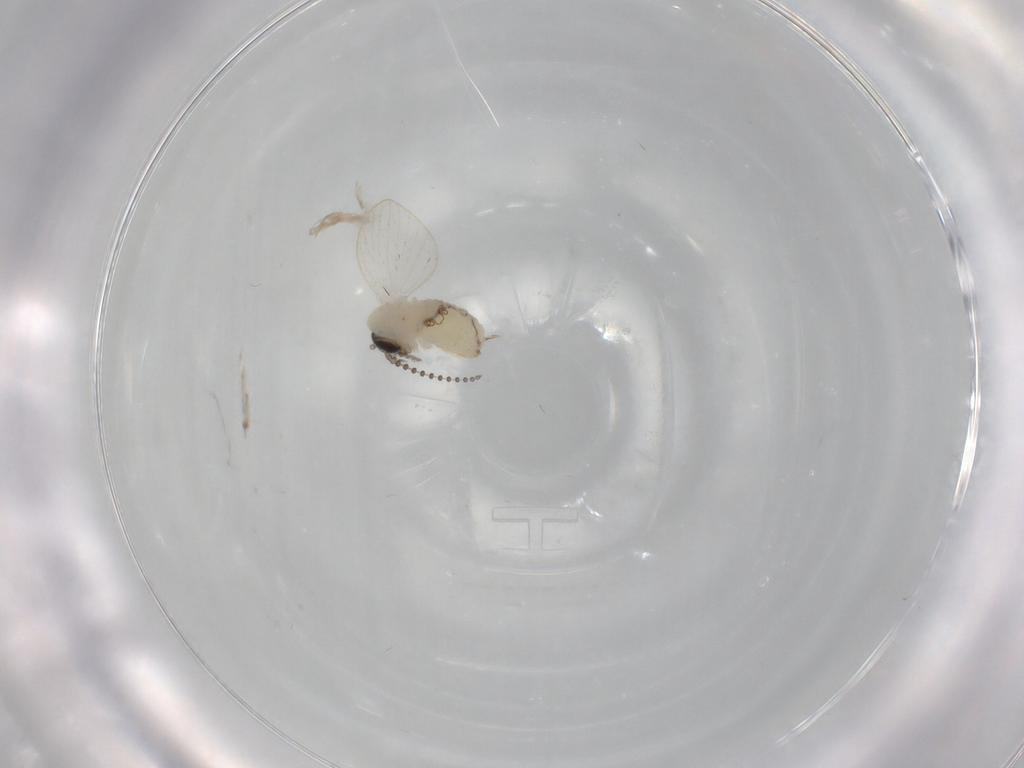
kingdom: Animalia
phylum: Arthropoda
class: Insecta
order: Diptera
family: Psychodidae
